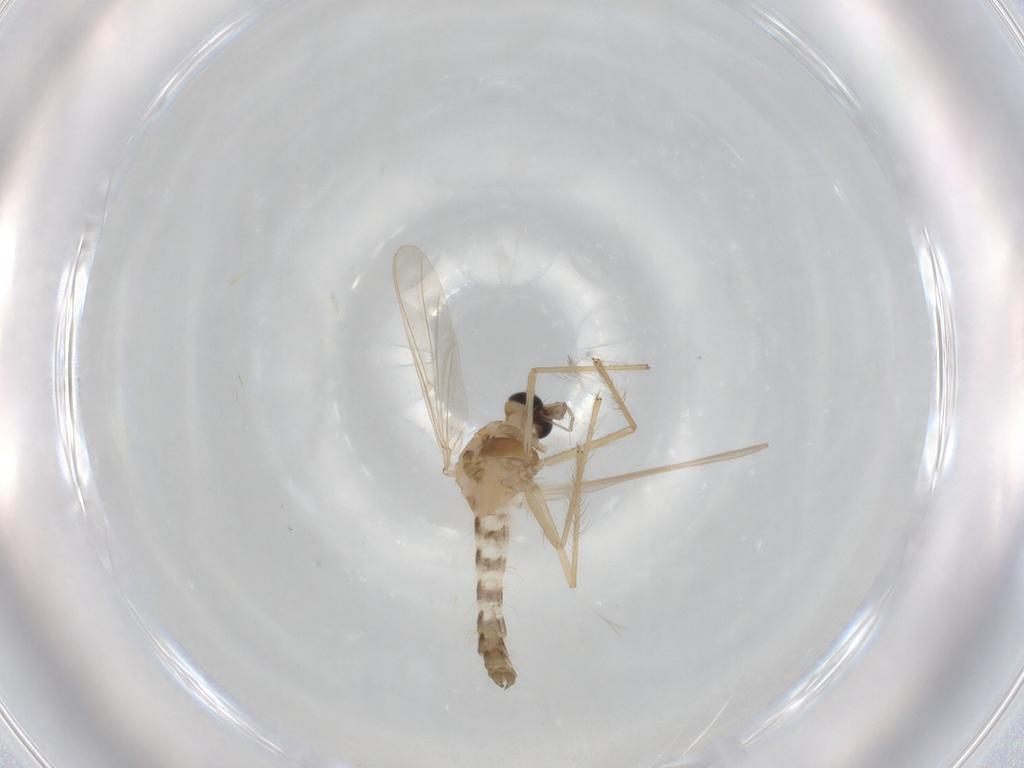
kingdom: Animalia
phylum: Arthropoda
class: Insecta
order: Diptera
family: Chironomidae
